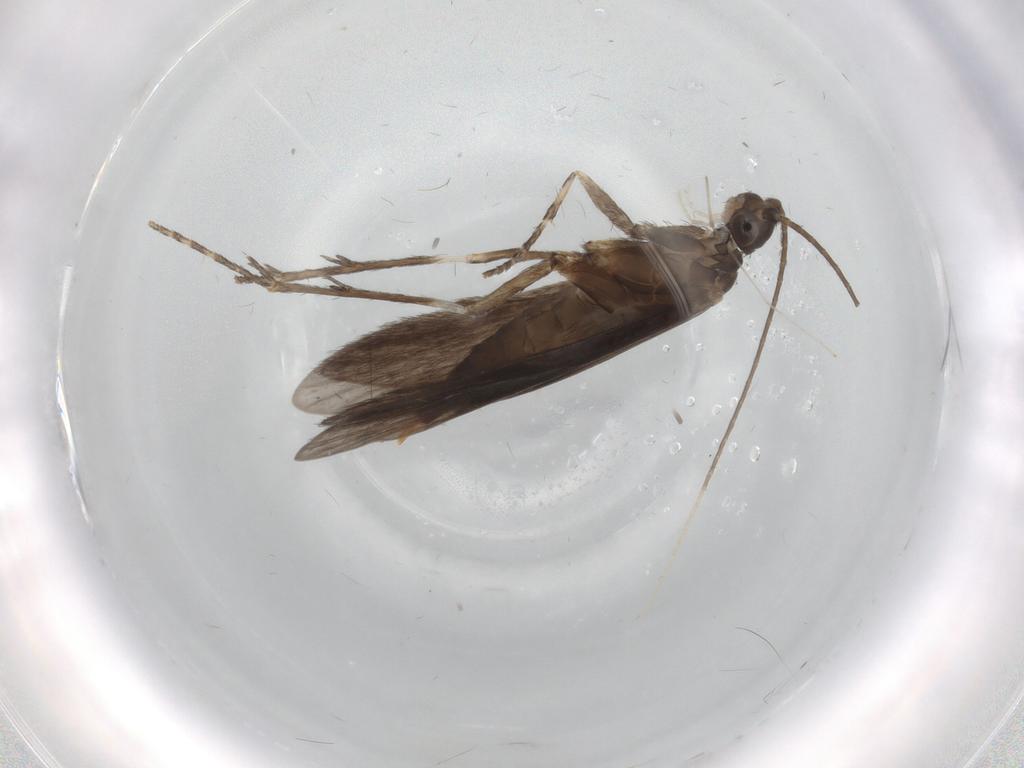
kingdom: Animalia
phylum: Arthropoda
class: Insecta
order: Trichoptera
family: Xiphocentronidae
